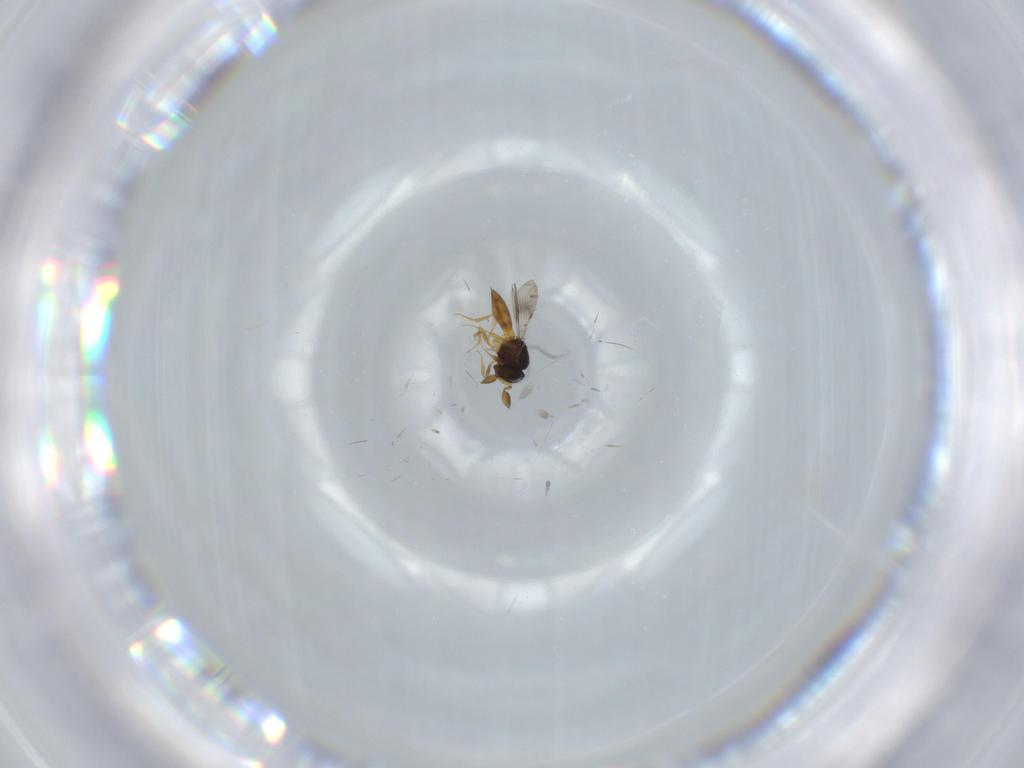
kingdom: Animalia
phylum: Arthropoda
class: Insecta
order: Hymenoptera
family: Scelionidae
